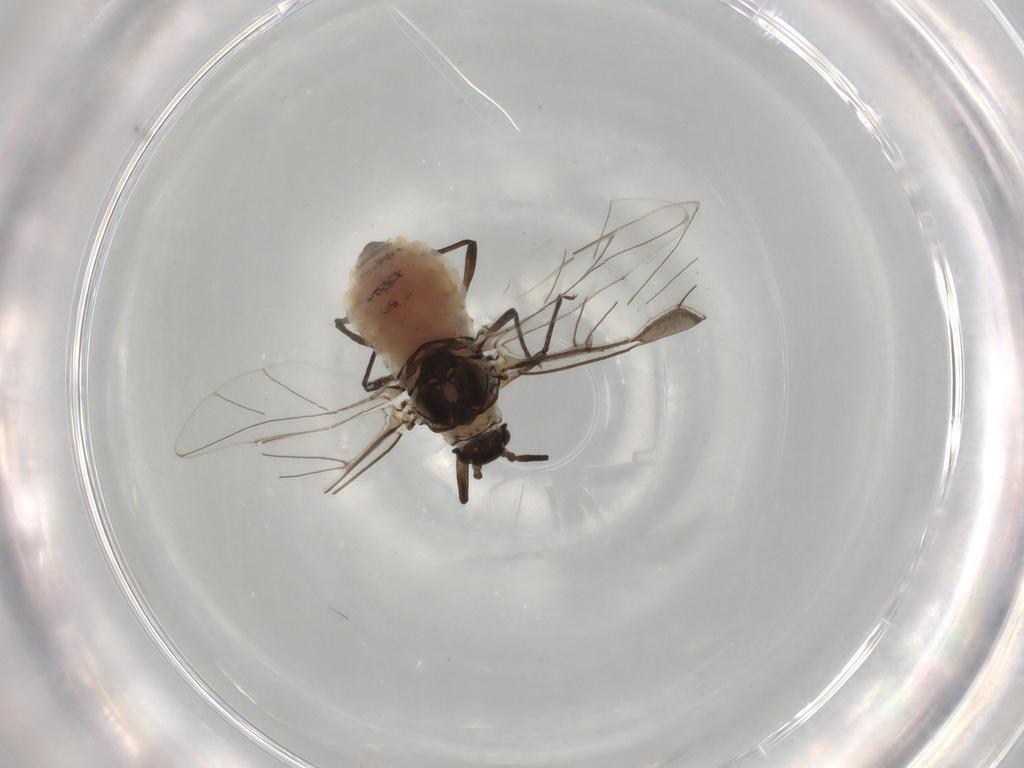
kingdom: Animalia
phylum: Arthropoda
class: Insecta
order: Hemiptera
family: Aphididae
